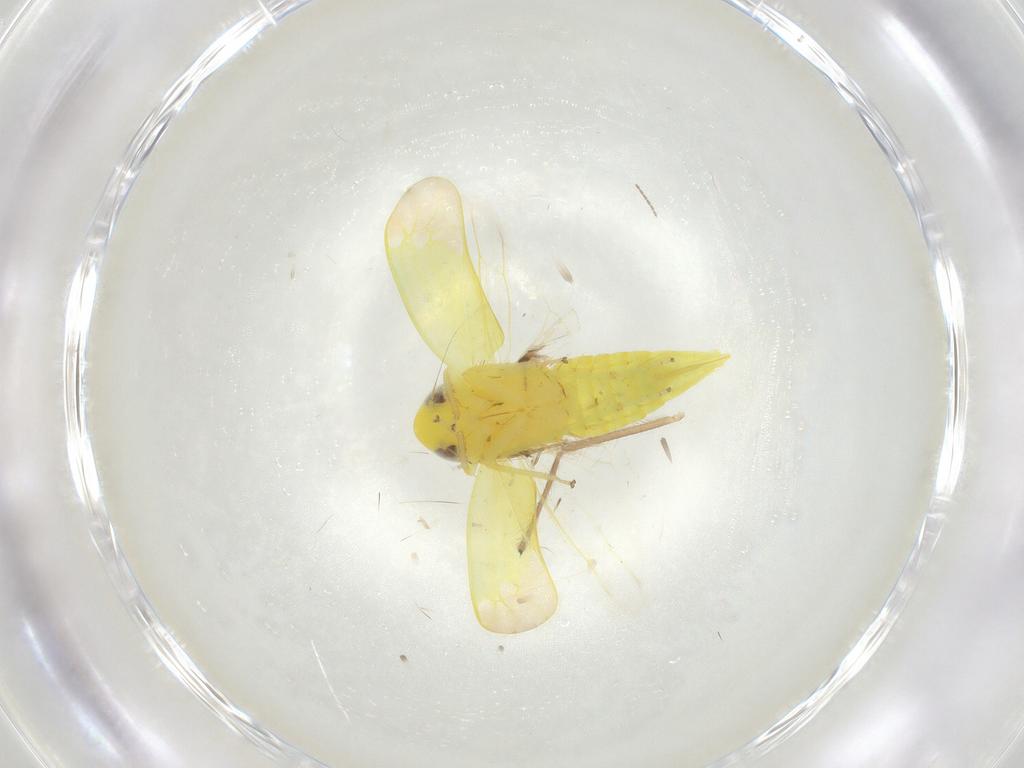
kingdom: Animalia
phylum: Arthropoda
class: Insecta
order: Hemiptera
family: Cicadellidae
